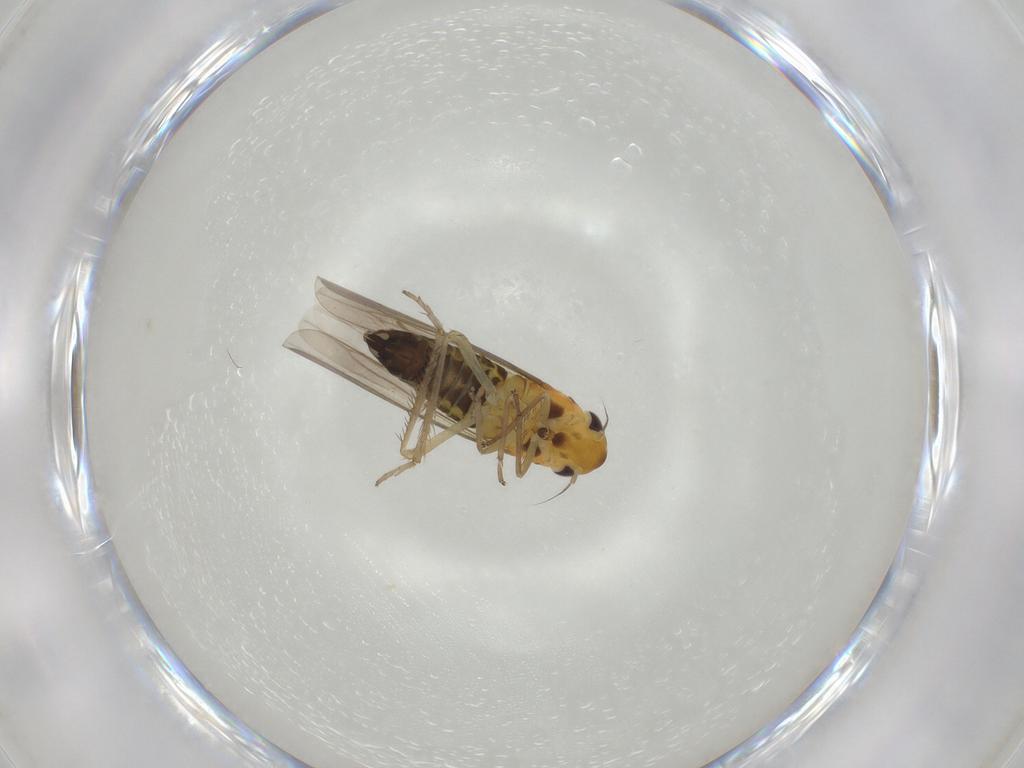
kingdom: Animalia
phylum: Arthropoda
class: Insecta
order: Hemiptera
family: Cicadellidae
